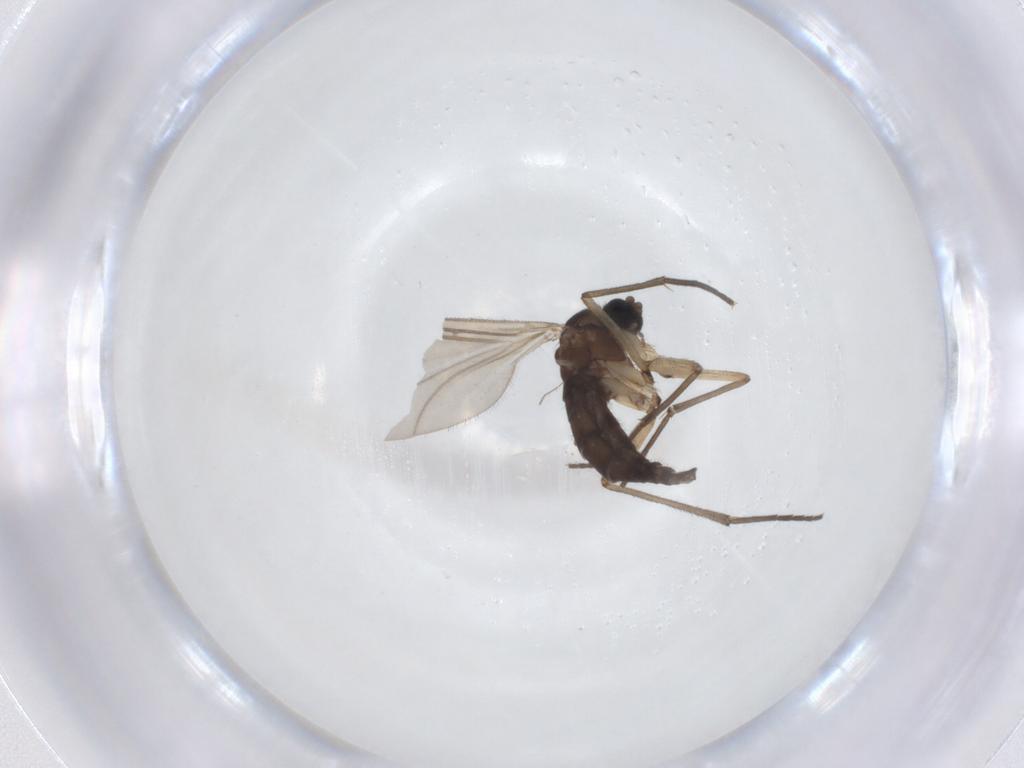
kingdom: Animalia
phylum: Arthropoda
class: Insecta
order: Diptera
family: Sciaridae
